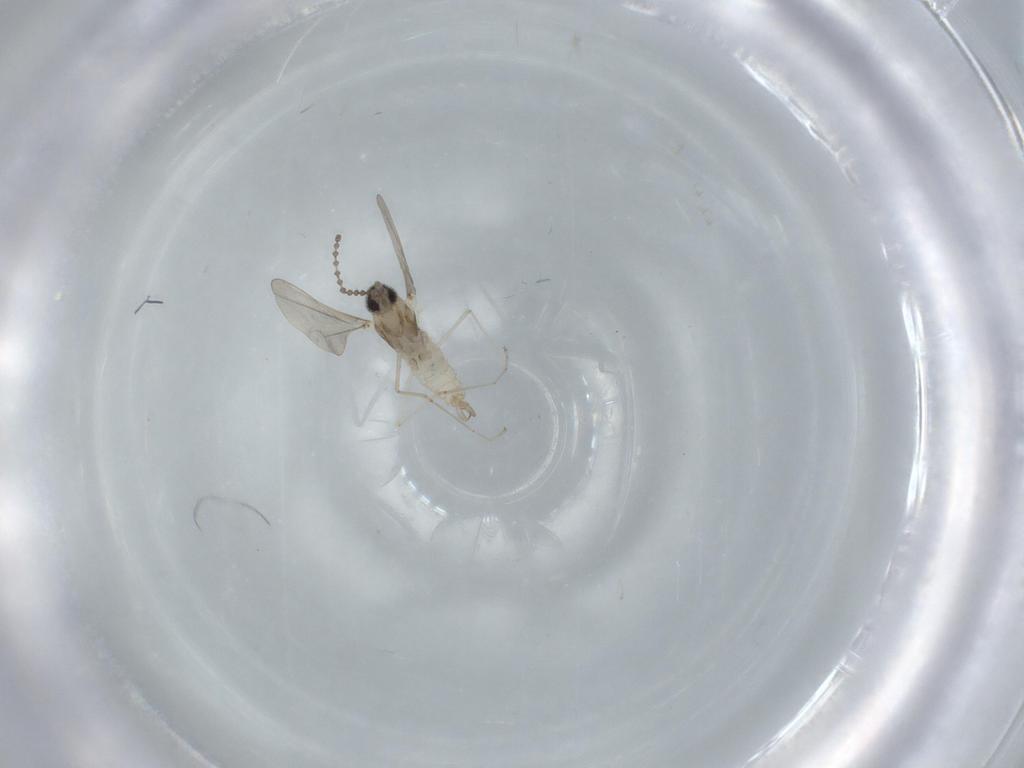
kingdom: Animalia
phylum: Arthropoda
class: Insecta
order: Diptera
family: Cecidomyiidae
